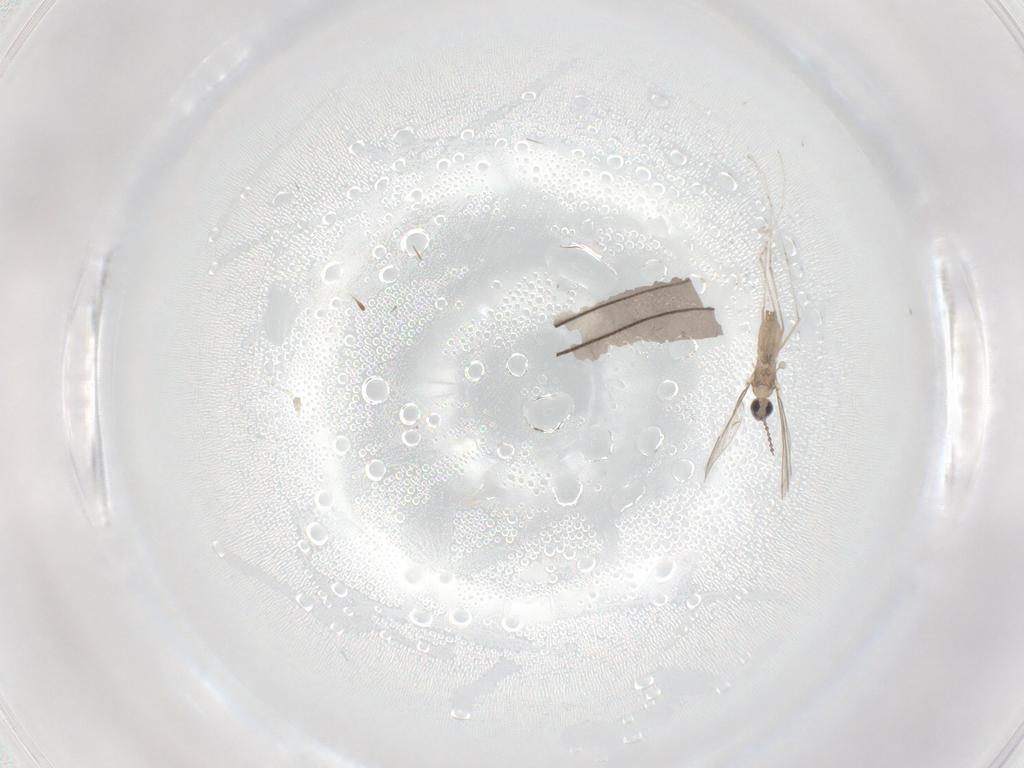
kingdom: Animalia
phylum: Arthropoda
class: Insecta
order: Diptera
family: Limoniidae
